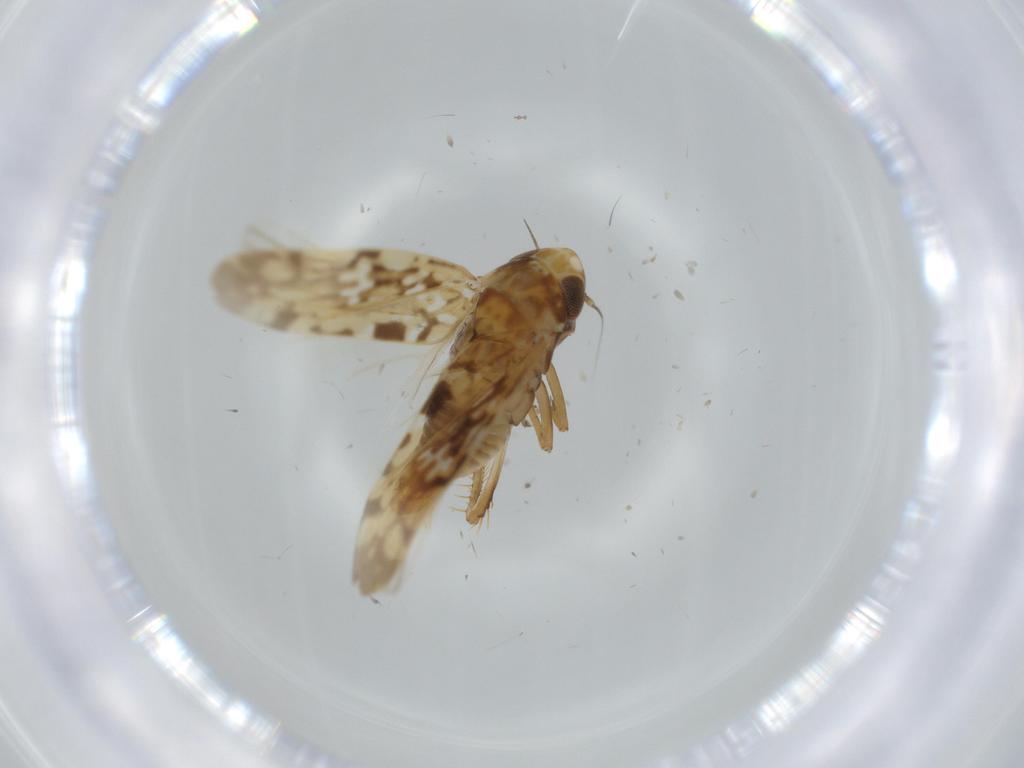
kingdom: Animalia
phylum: Arthropoda
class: Insecta
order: Hemiptera
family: Cicadellidae
